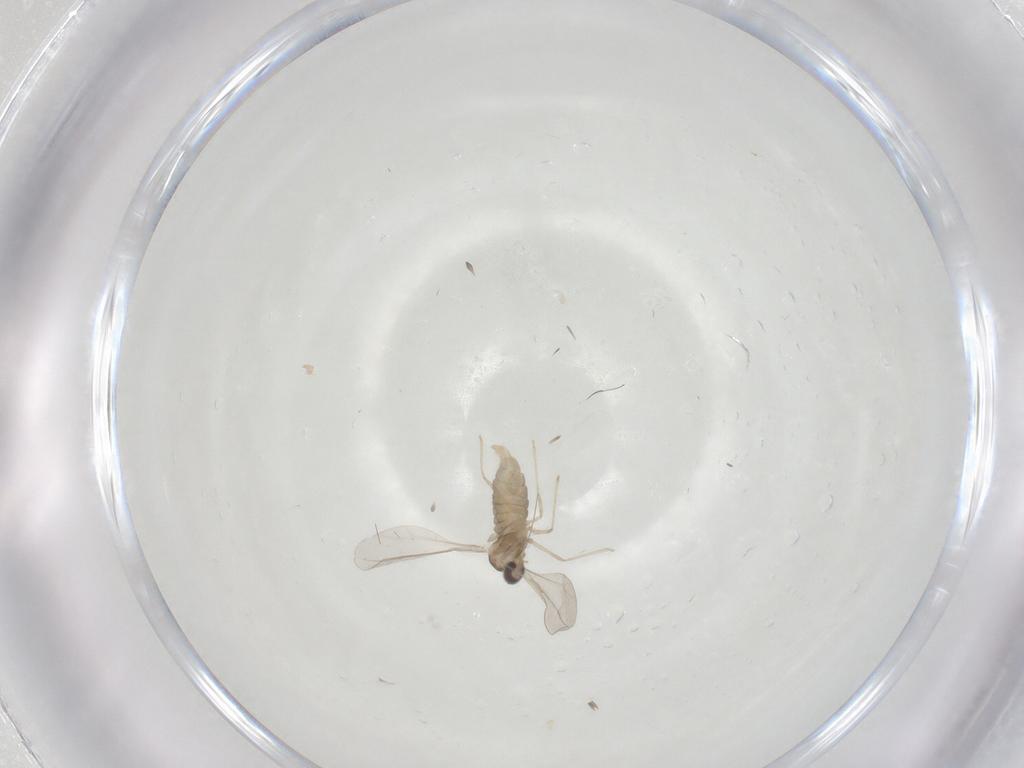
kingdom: Animalia
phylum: Arthropoda
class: Insecta
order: Diptera
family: Cecidomyiidae
